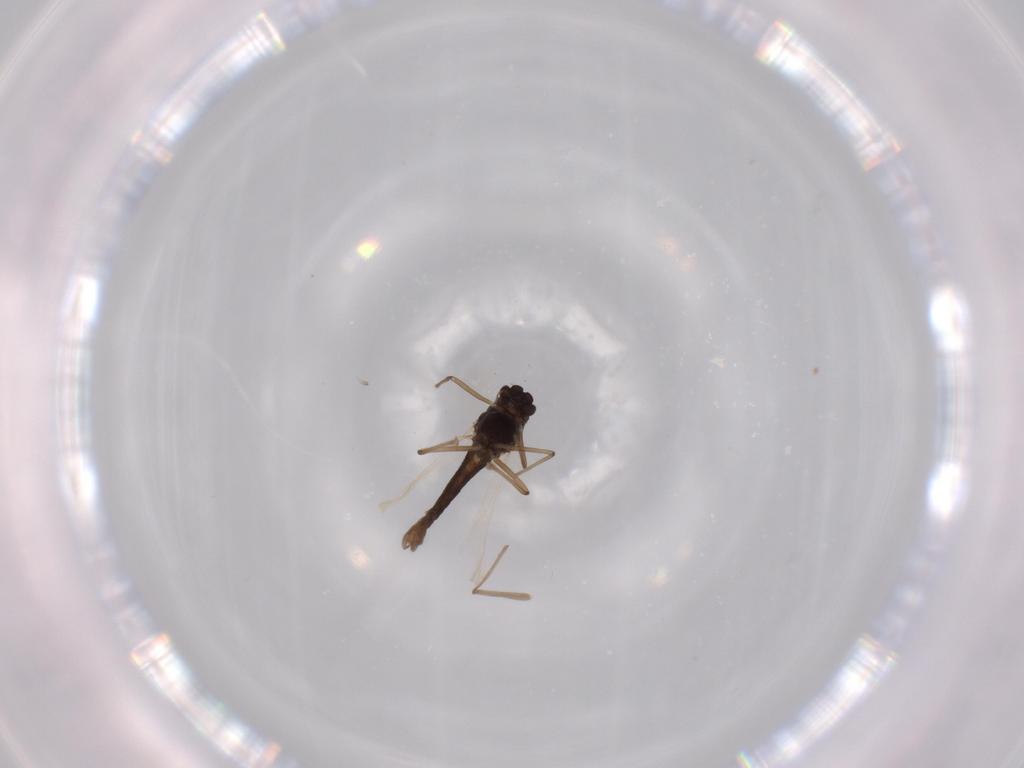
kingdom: Animalia
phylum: Arthropoda
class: Insecta
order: Diptera
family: Chironomidae
